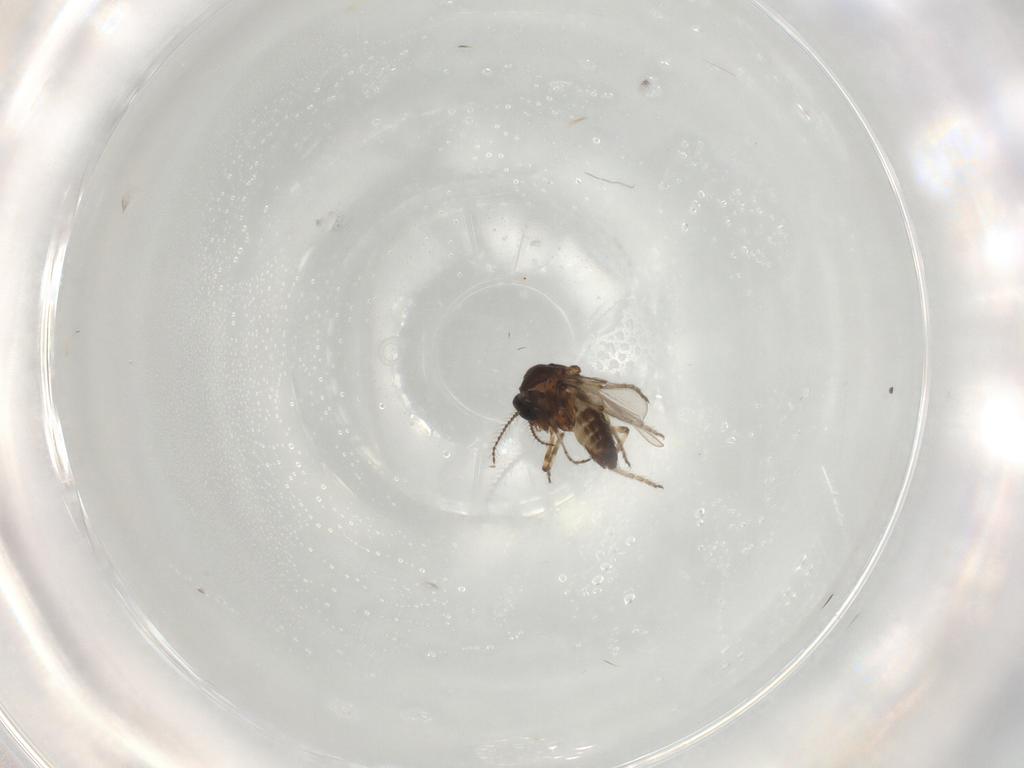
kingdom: Animalia
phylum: Arthropoda
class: Insecta
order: Diptera
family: Ceratopogonidae
